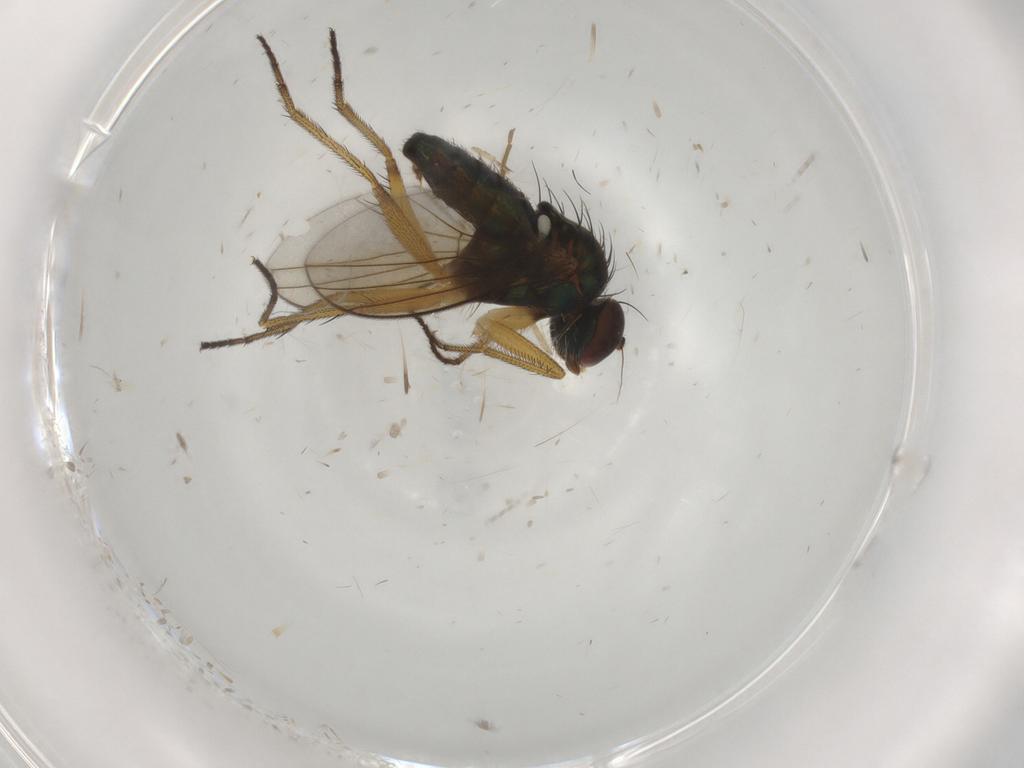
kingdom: Animalia
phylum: Arthropoda
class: Insecta
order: Diptera
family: Dolichopodidae
